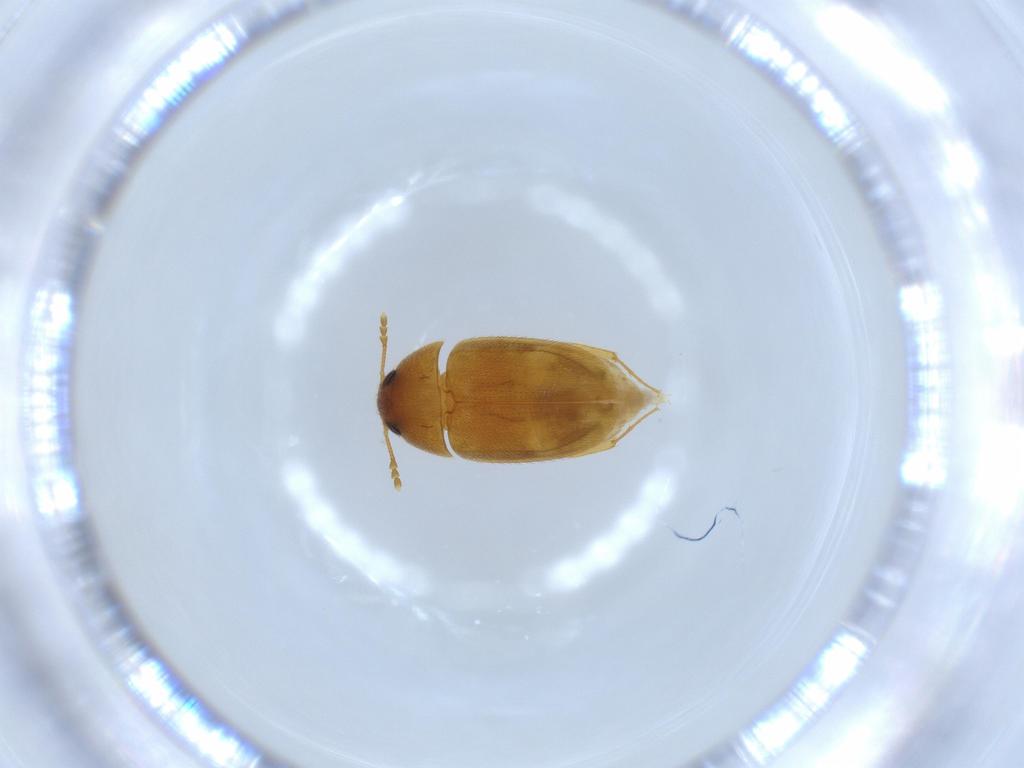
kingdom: Animalia
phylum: Arthropoda
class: Insecta
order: Coleoptera
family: Mycetophagidae
